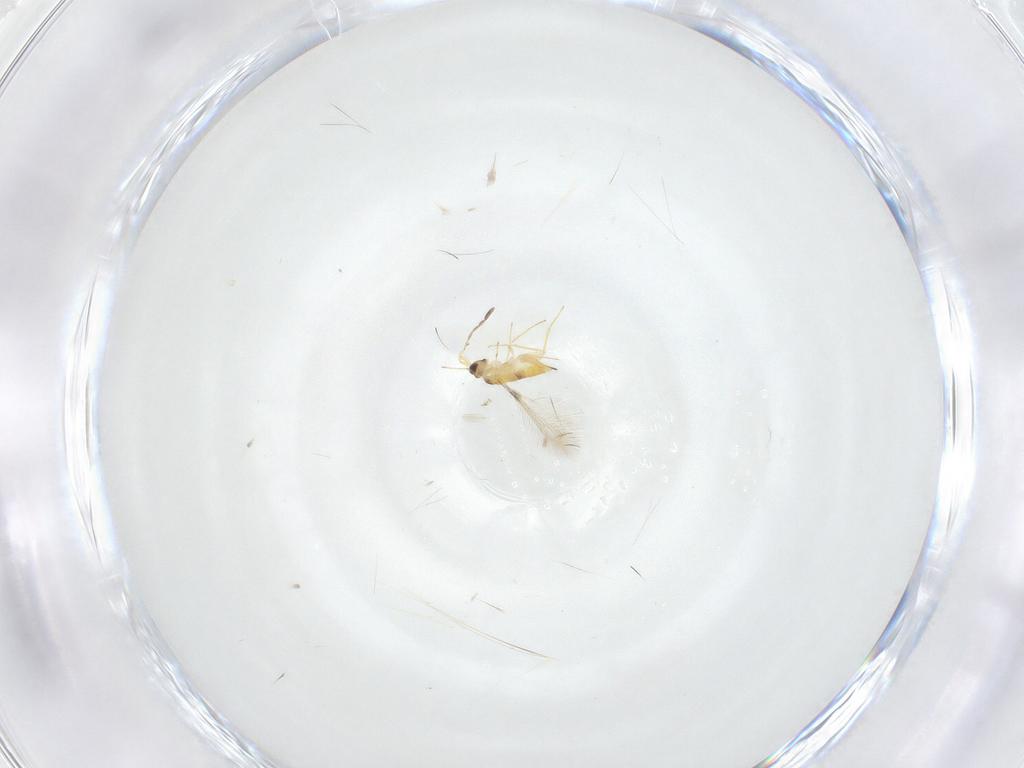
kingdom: Animalia
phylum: Arthropoda
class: Insecta
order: Hymenoptera
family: Mymaridae
